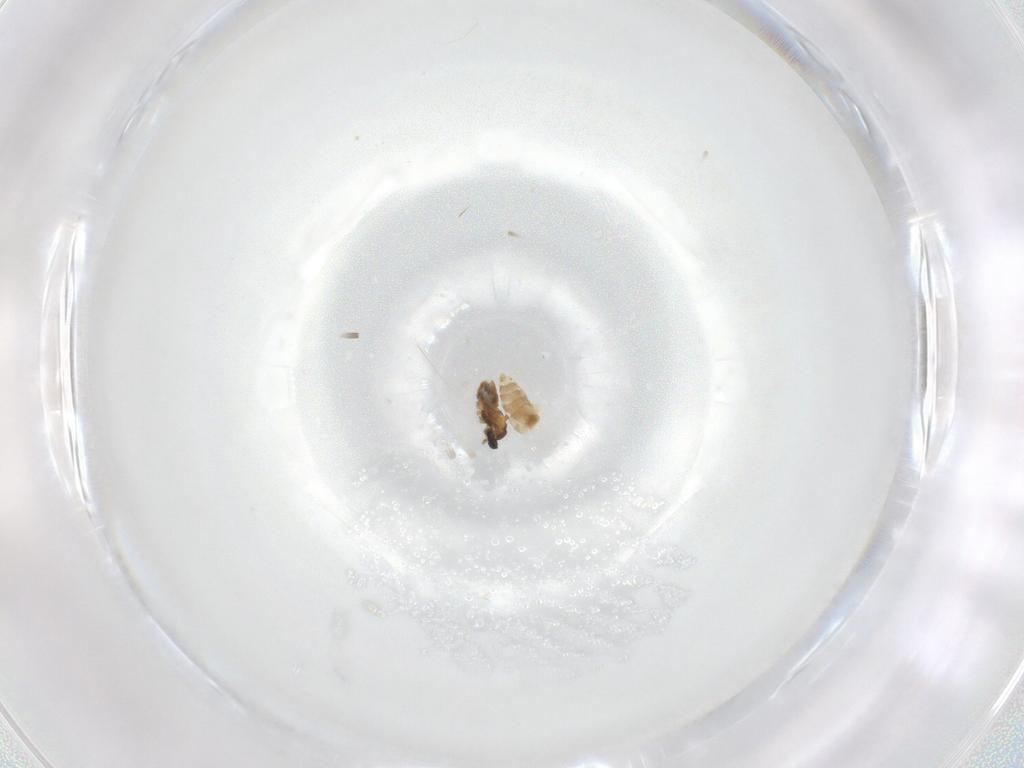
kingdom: Animalia
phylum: Arthropoda
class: Insecta
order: Diptera
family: Cecidomyiidae
